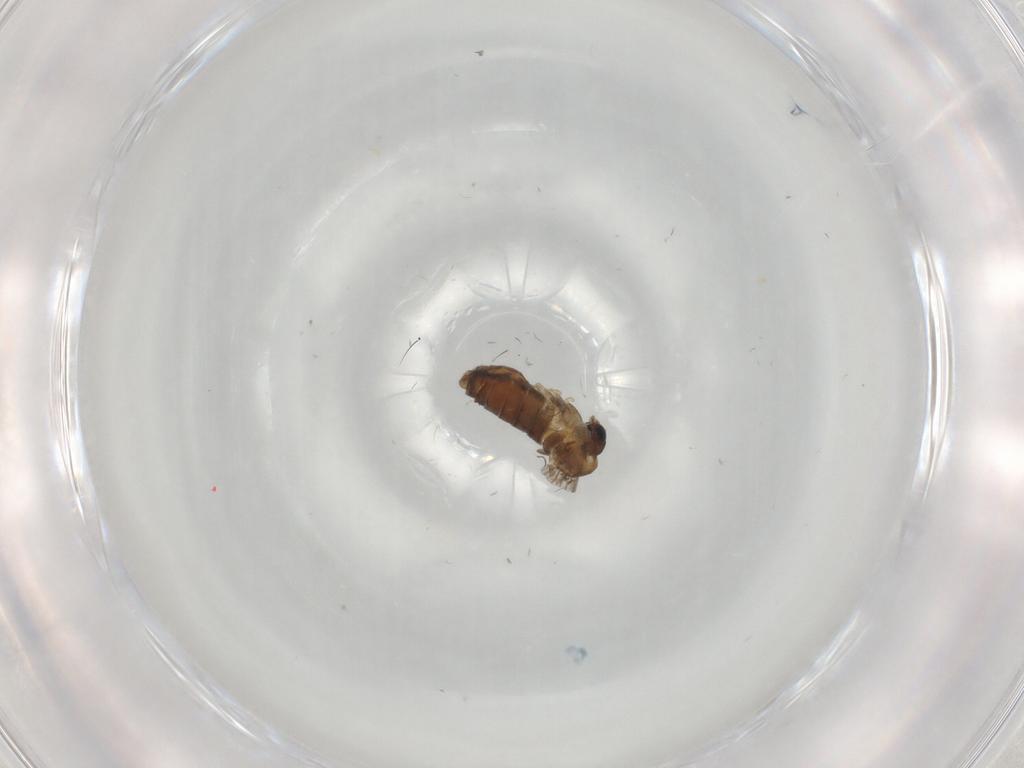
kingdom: Animalia
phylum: Arthropoda
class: Insecta
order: Diptera
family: Psychodidae
